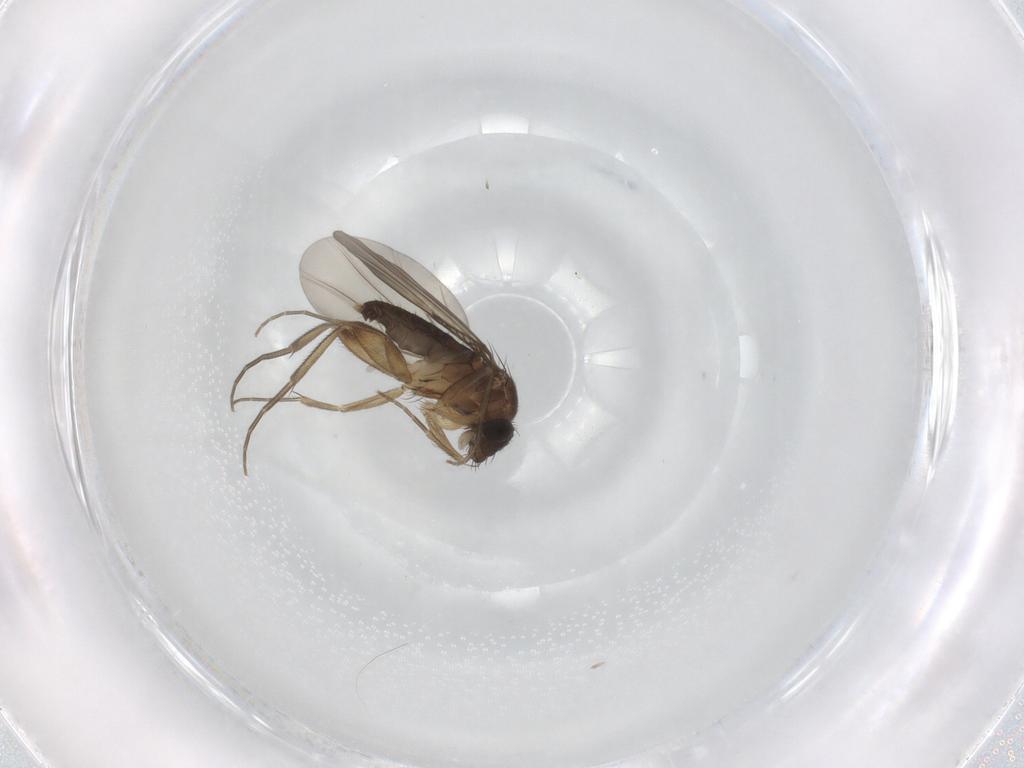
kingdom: Animalia
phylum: Arthropoda
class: Insecta
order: Diptera
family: Phoridae
